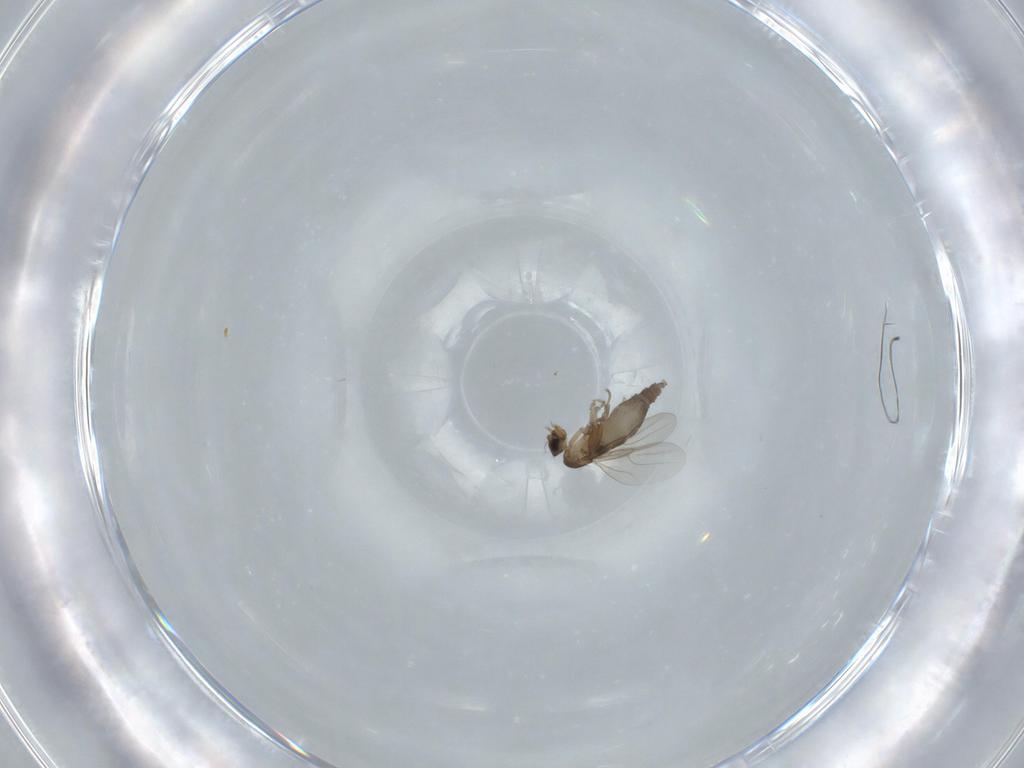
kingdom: Animalia
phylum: Arthropoda
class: Insecta
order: Diptera
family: Phoridae
